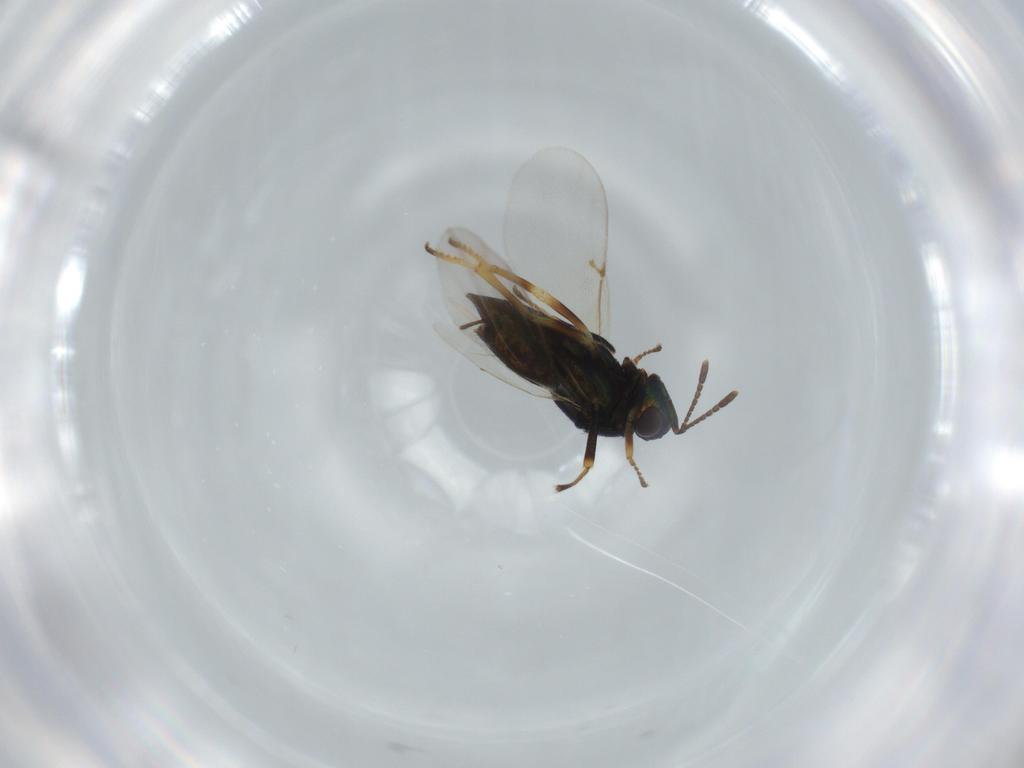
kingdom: Animalia
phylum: Arthropoda
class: Insecta
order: Hymenoptera
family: Encyrtidae
